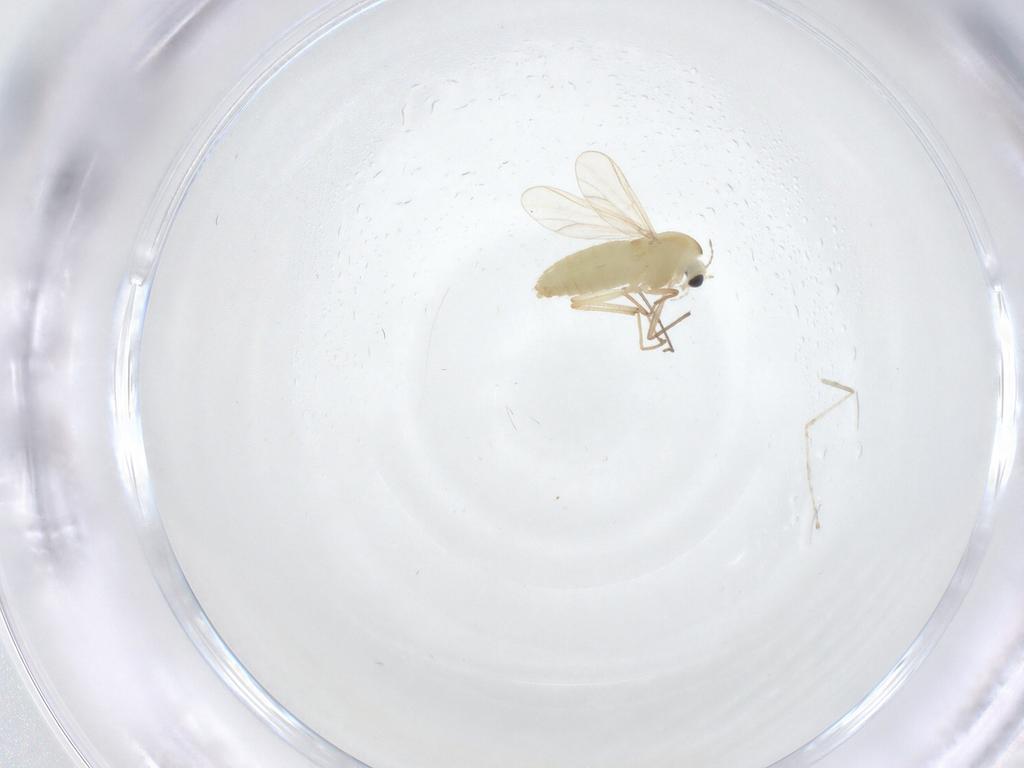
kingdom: Animalia
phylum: Arthropoda
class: Insecta
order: Diptera
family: Cecidomyiidae
